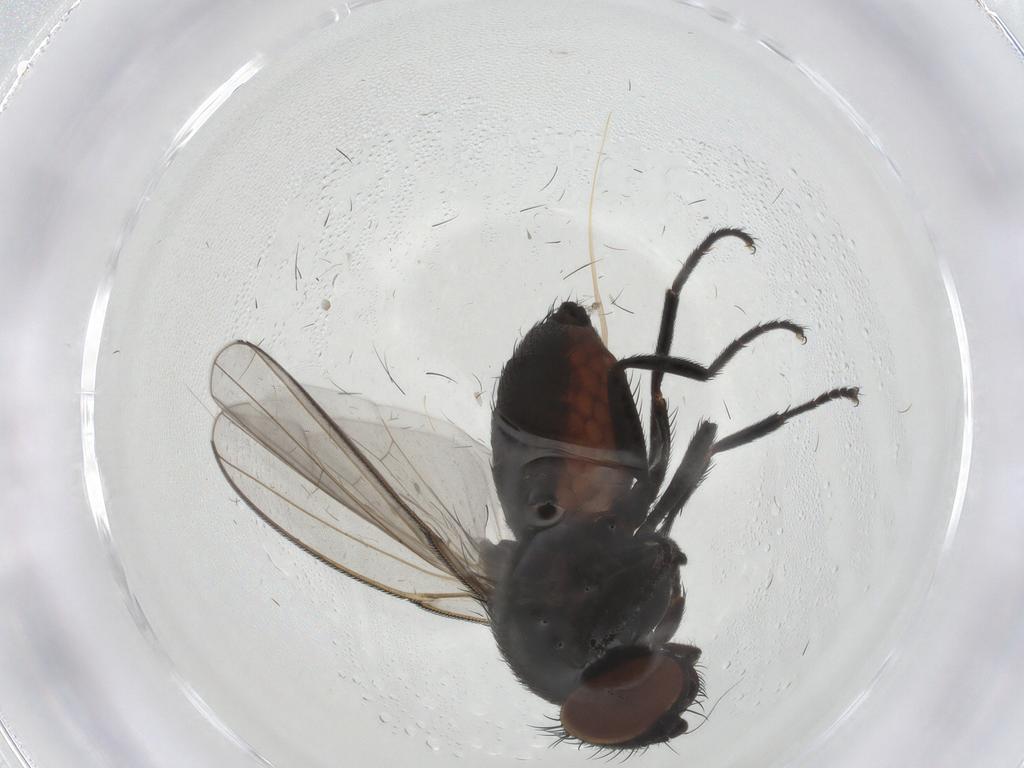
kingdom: Animalia
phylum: Arthropoda
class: Insecta
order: Diptera
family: Milichiidae
